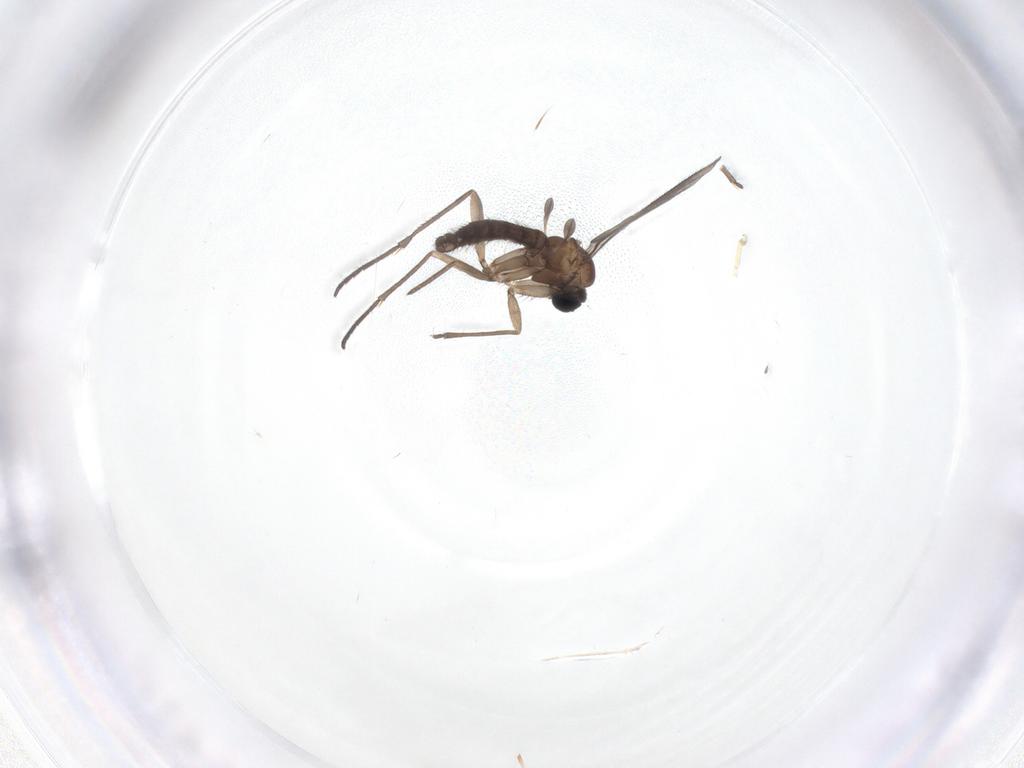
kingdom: Animalia
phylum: Arthropoda
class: Insecta
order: Diptera
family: Sciaridae
